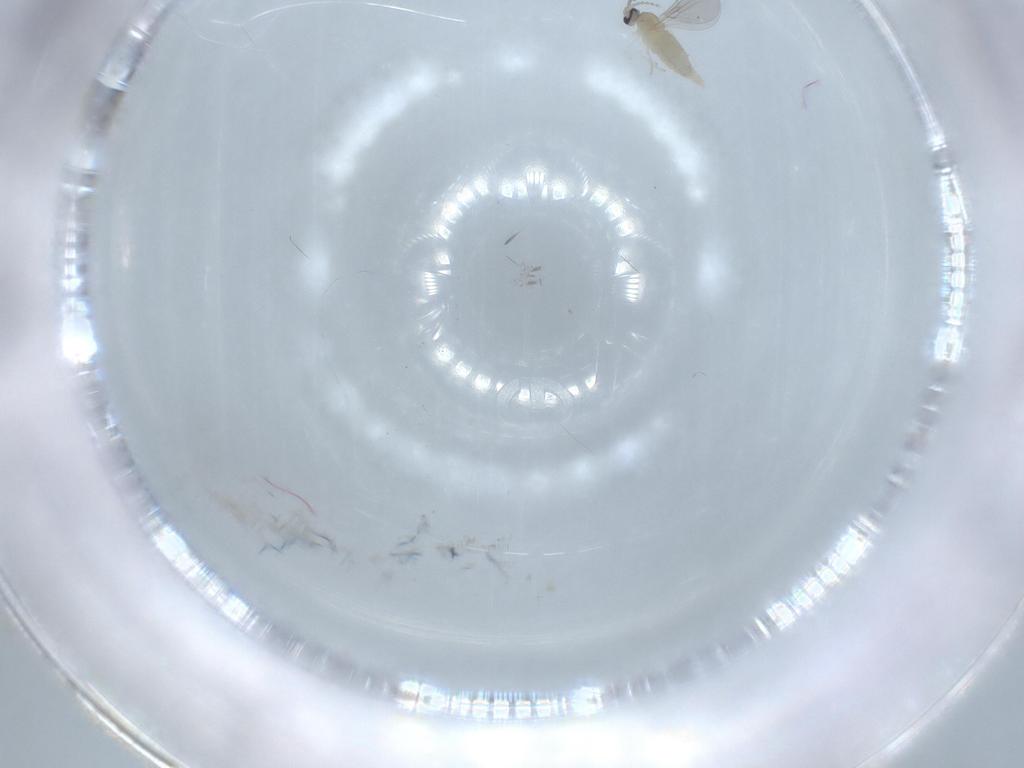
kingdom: Animalia
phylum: Arthropoda
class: Insecta
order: Diptera
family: Cecidomyiidae
